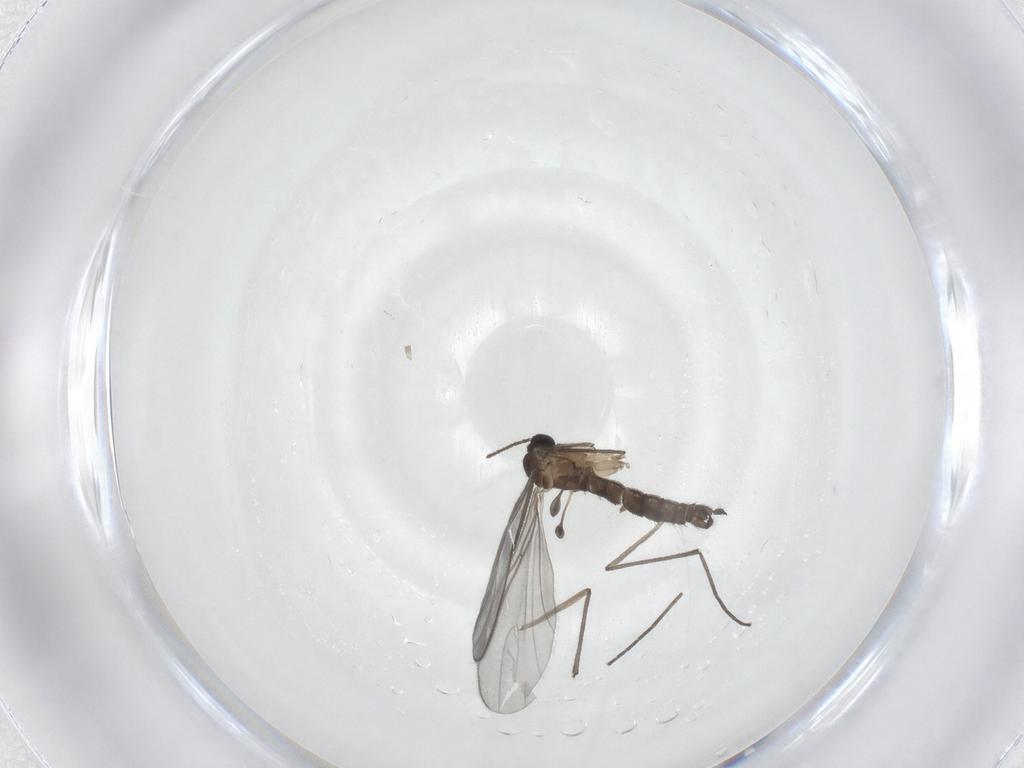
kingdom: Animalia
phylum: Arthropoda
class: Insecta
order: Diptera
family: Sciaridae
